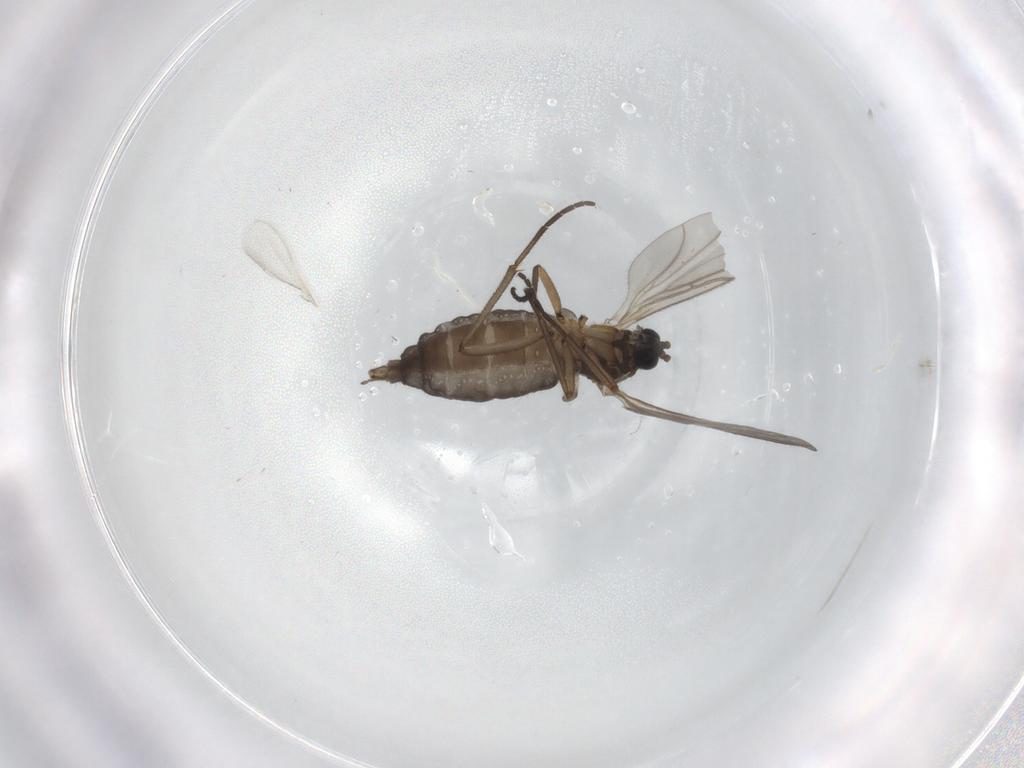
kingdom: Animalia
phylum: Arthropoda
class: Insecta
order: Diptera
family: Sciaridae
